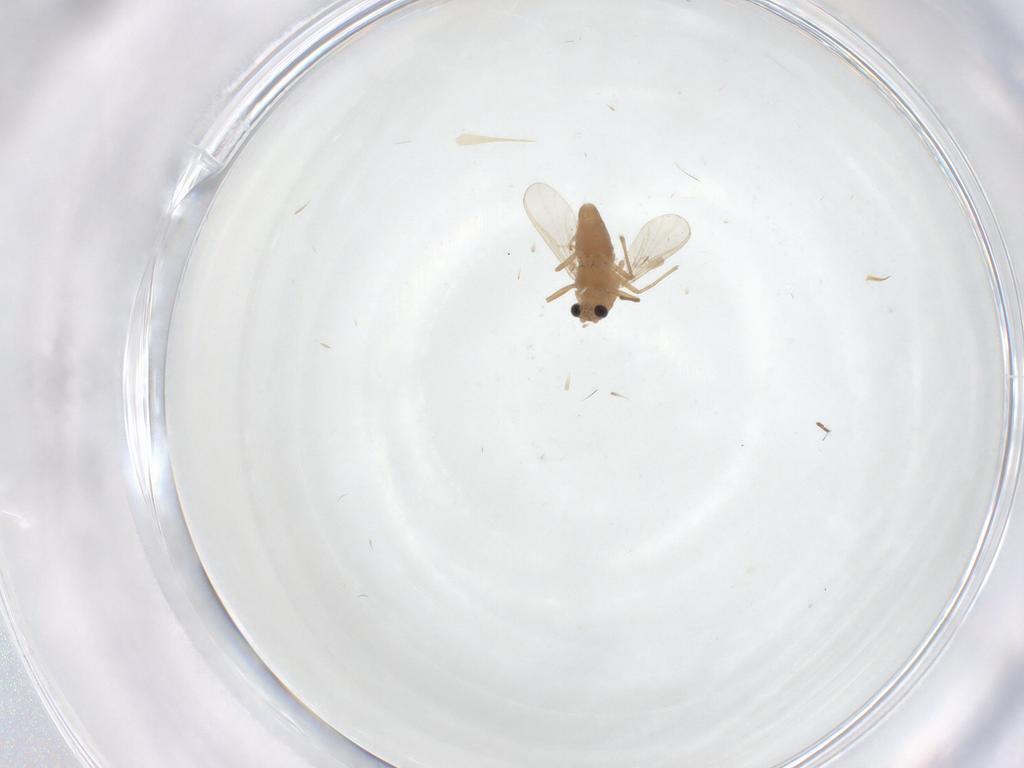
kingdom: Animalia
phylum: Arthropoda
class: Insecta
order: Diptera
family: Chironomidae
